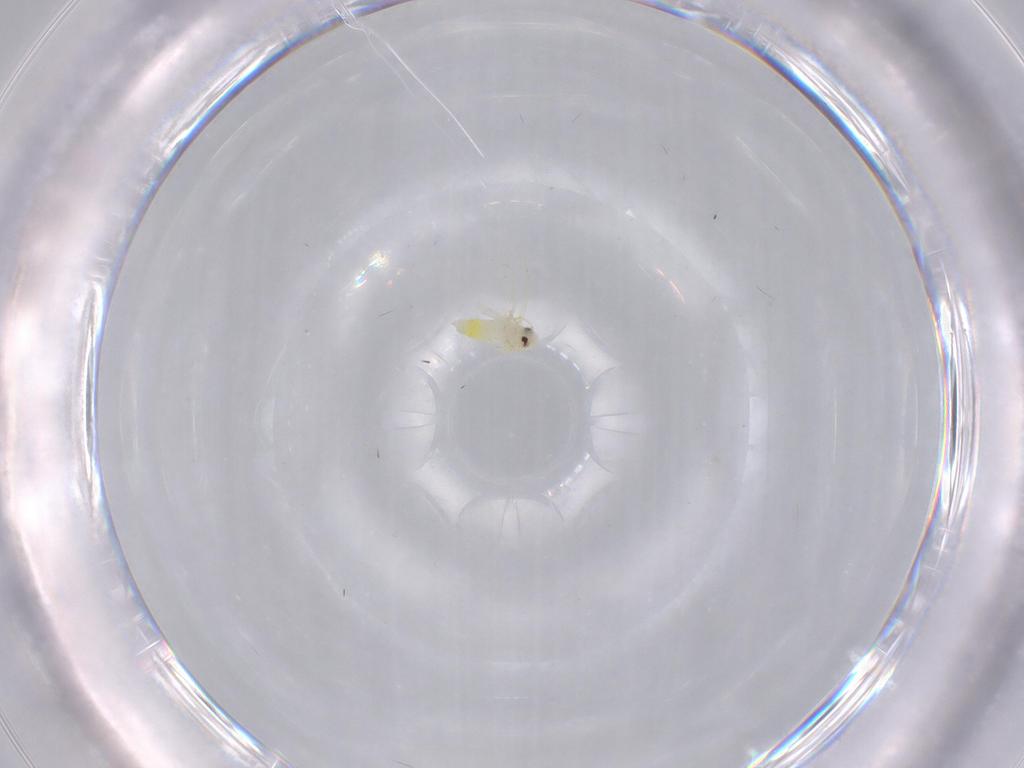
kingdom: Animalia
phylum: Arthropoda
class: Insecta
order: Hemiptera
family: Aleyrodidae
